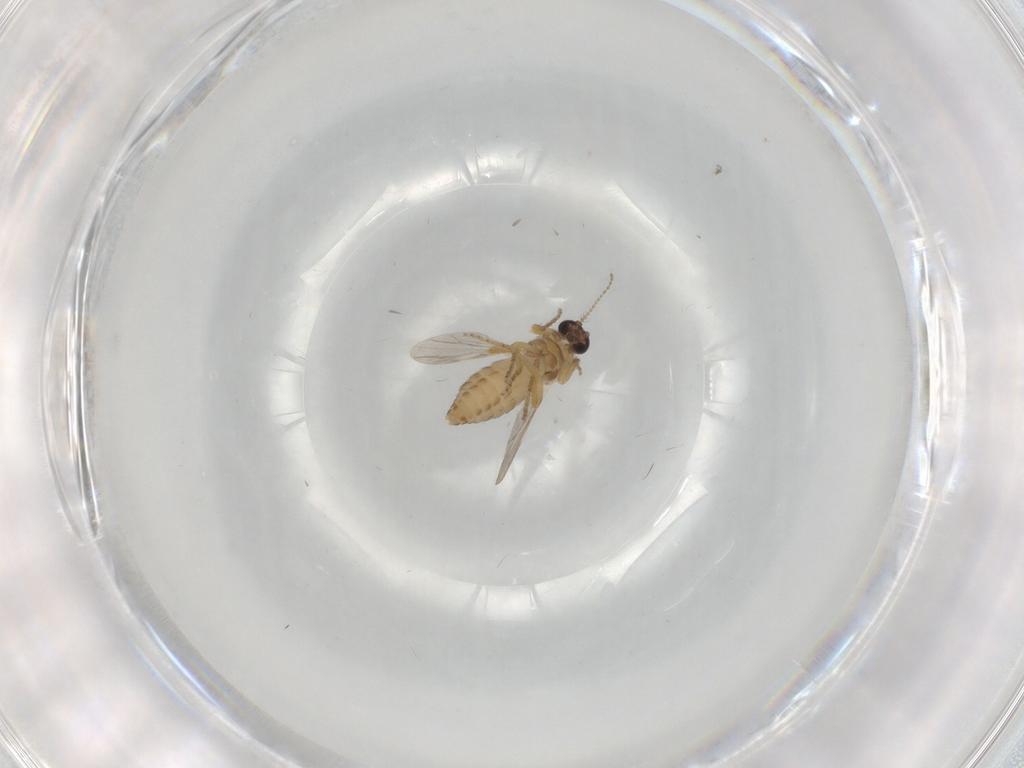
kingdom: Animalia
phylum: Arthropoda
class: Insecta
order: Diptera
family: Ceratopogonidae
